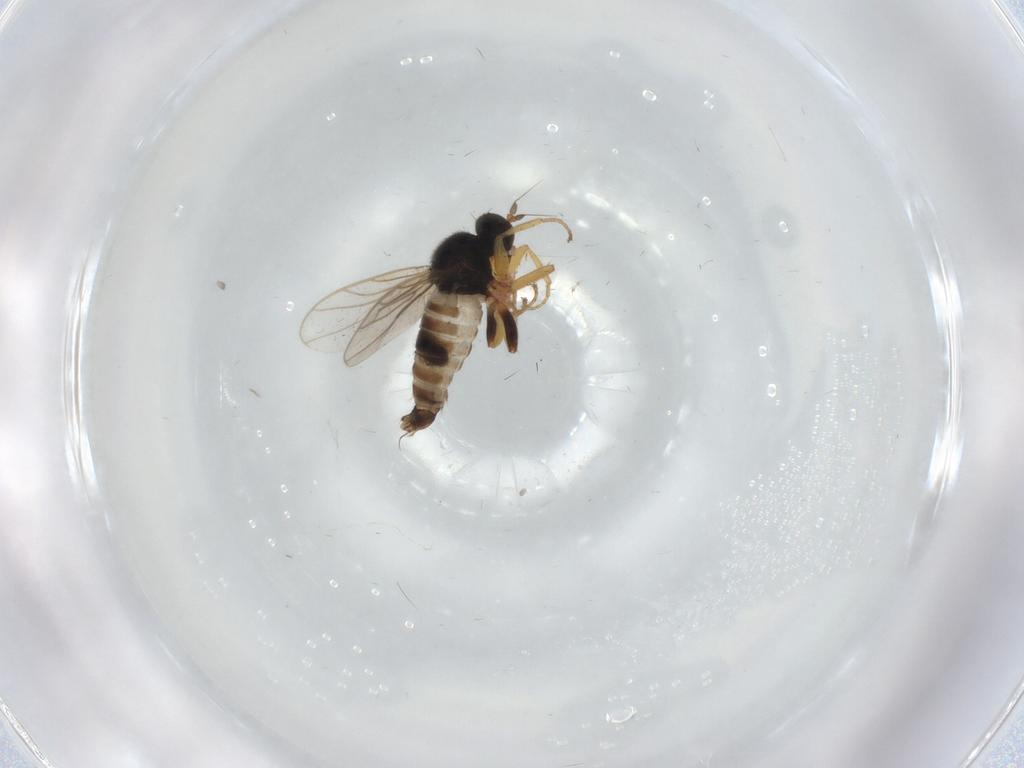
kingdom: Animalia
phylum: Arthropoda
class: Insecta
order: Diptera
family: Hybotidae
